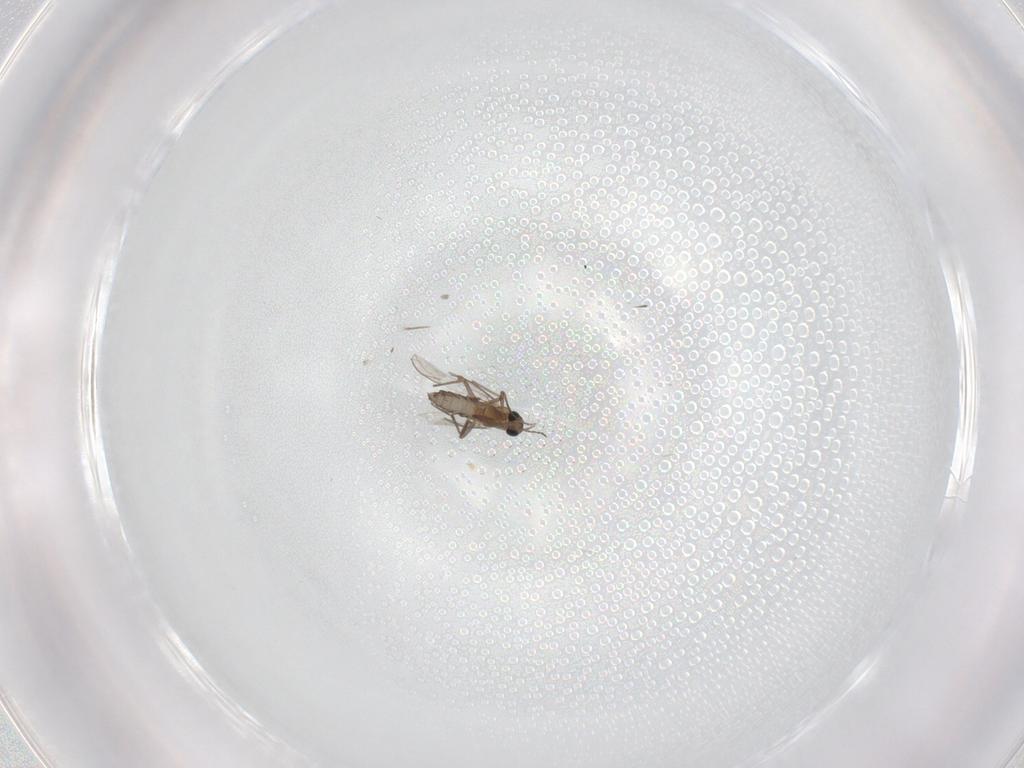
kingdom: Animalia
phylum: Arthropoda
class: Insecta
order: Diptera
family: Chironomidae
